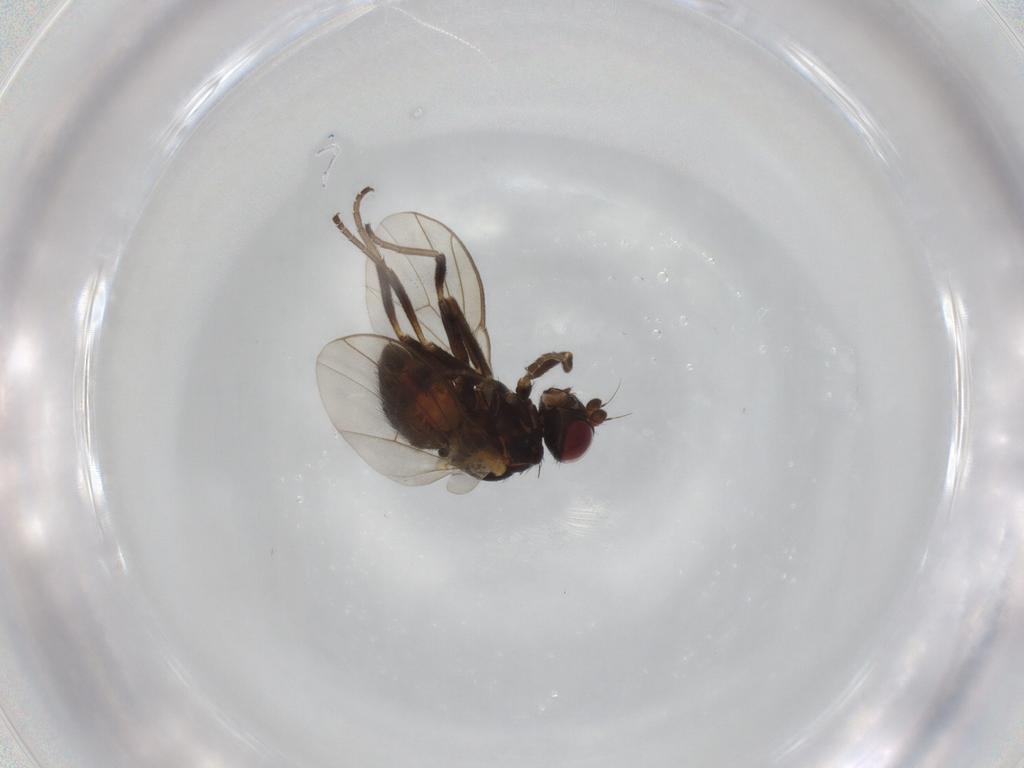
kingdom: Animalia
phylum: Arthropoda
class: Insecta
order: Diptera
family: Agromyzidae
